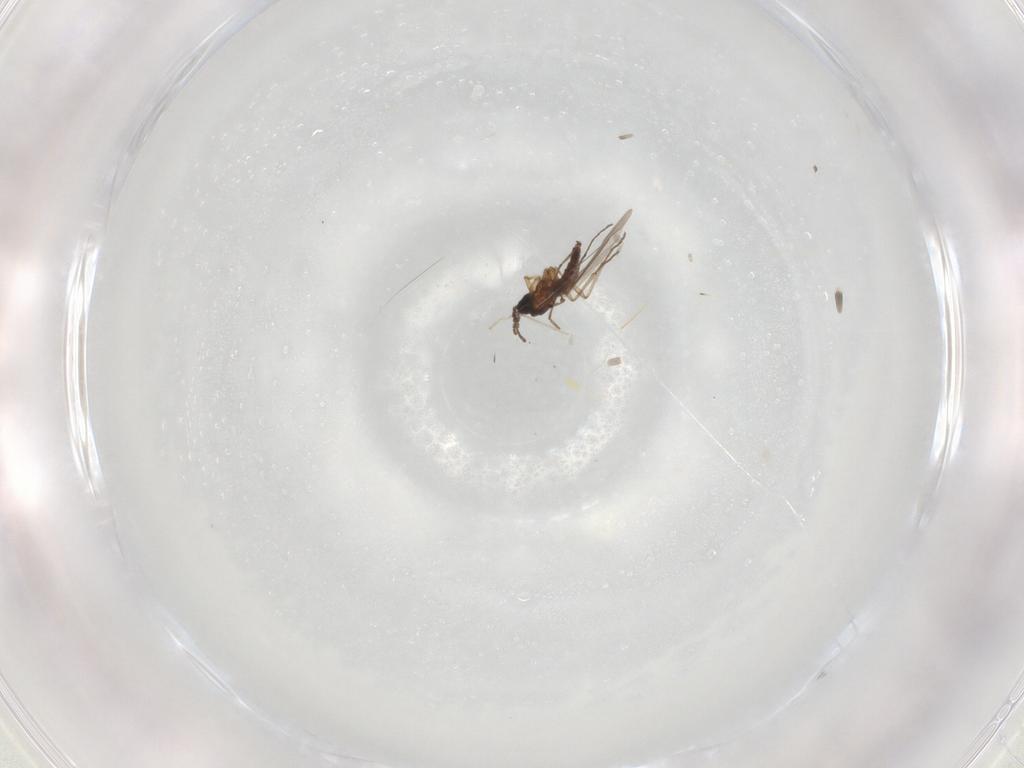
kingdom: Animalia
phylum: Arthropoda
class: Insecta
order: Diptera
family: Sciaridae
